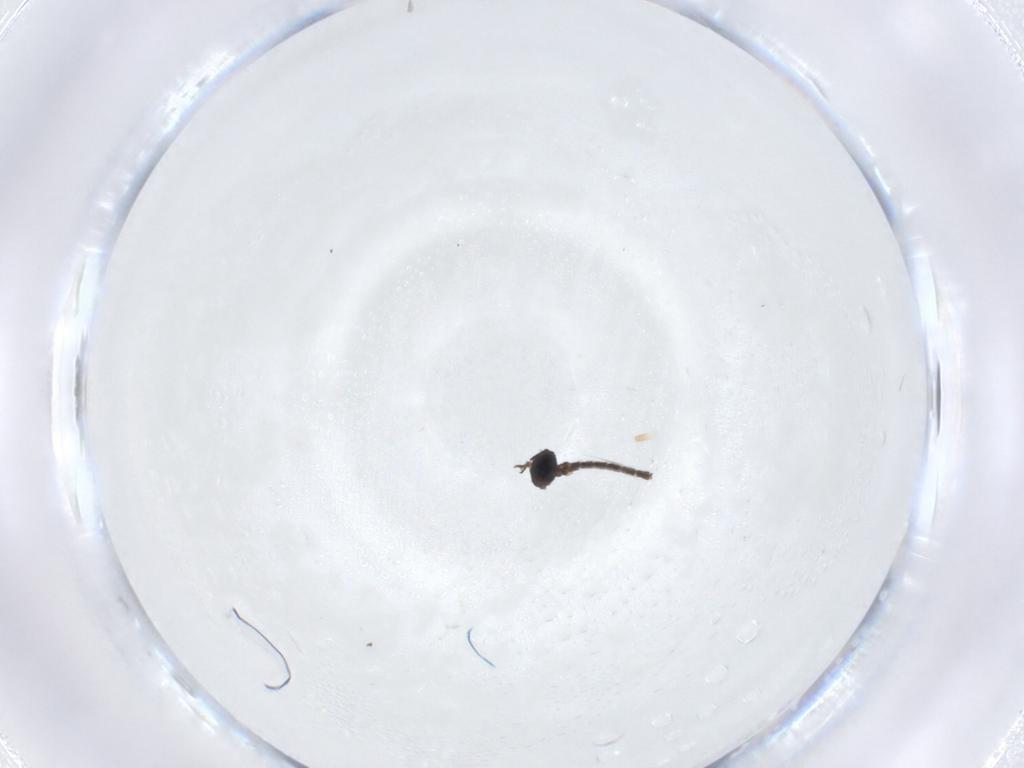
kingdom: Animalia
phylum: Arthropoda
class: Insecta
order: Diptera
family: Sciaridae
